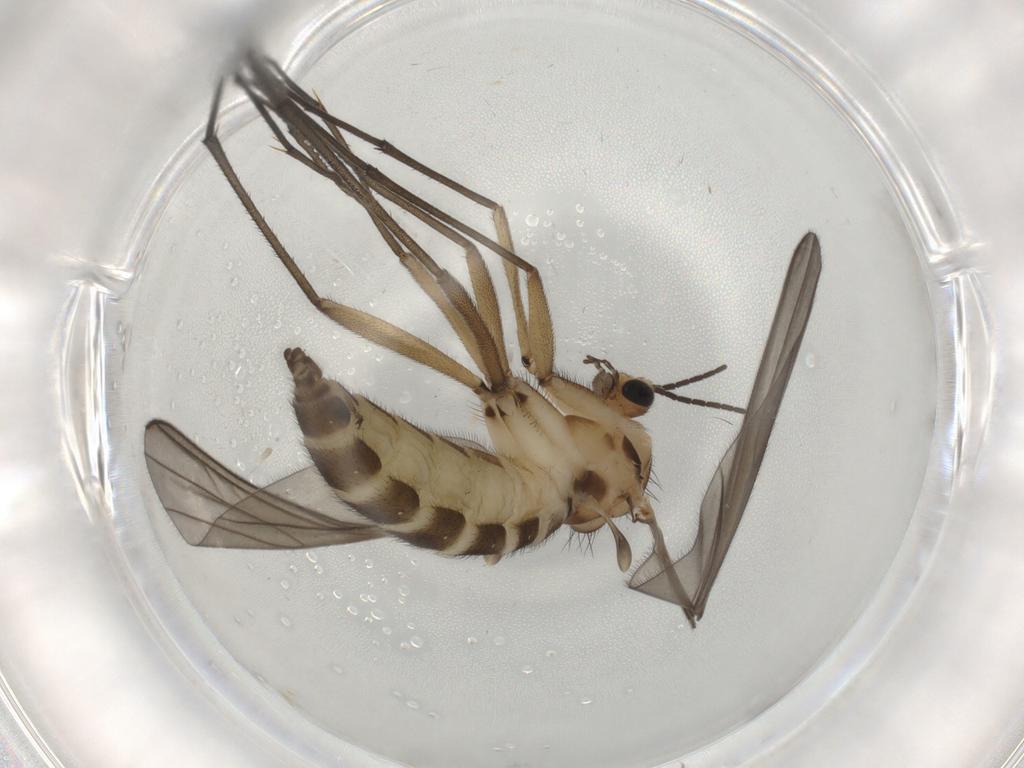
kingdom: Animalia
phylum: Arthropoda
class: Insecta
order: Diptera
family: Sciaridae
